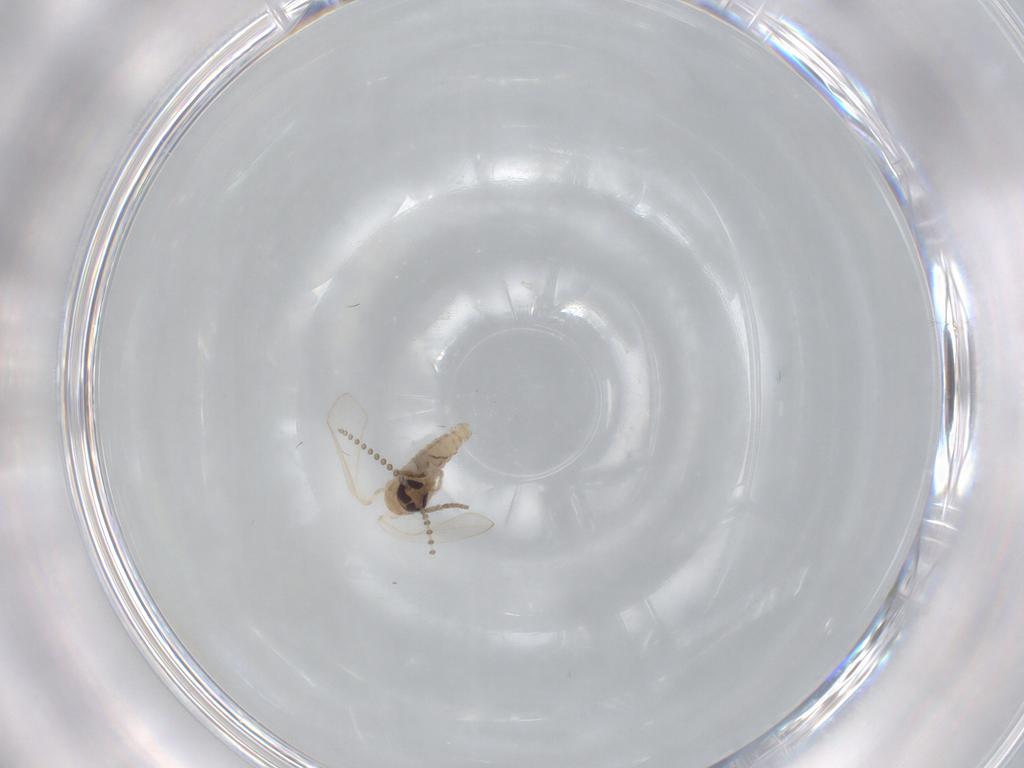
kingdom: Animalia
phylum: Arthropoda
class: Insecta
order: Diptera
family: Psychodidae
